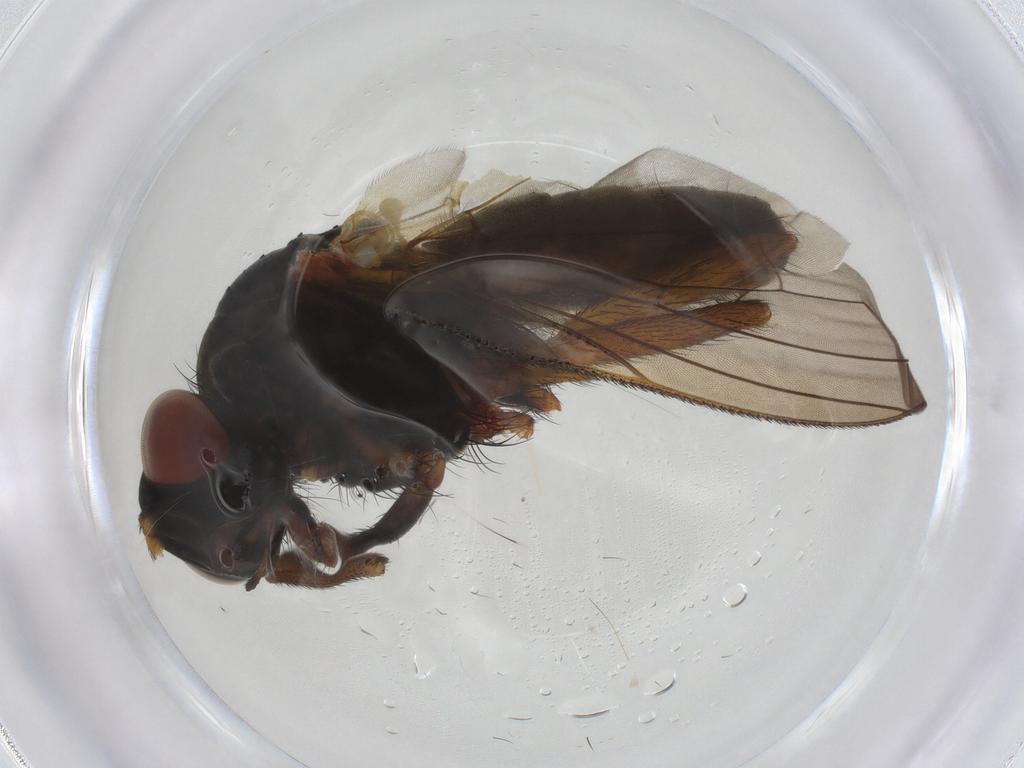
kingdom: Animalia
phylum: Arthropoda
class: Insecta
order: Diptera
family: Anthomyiidae
